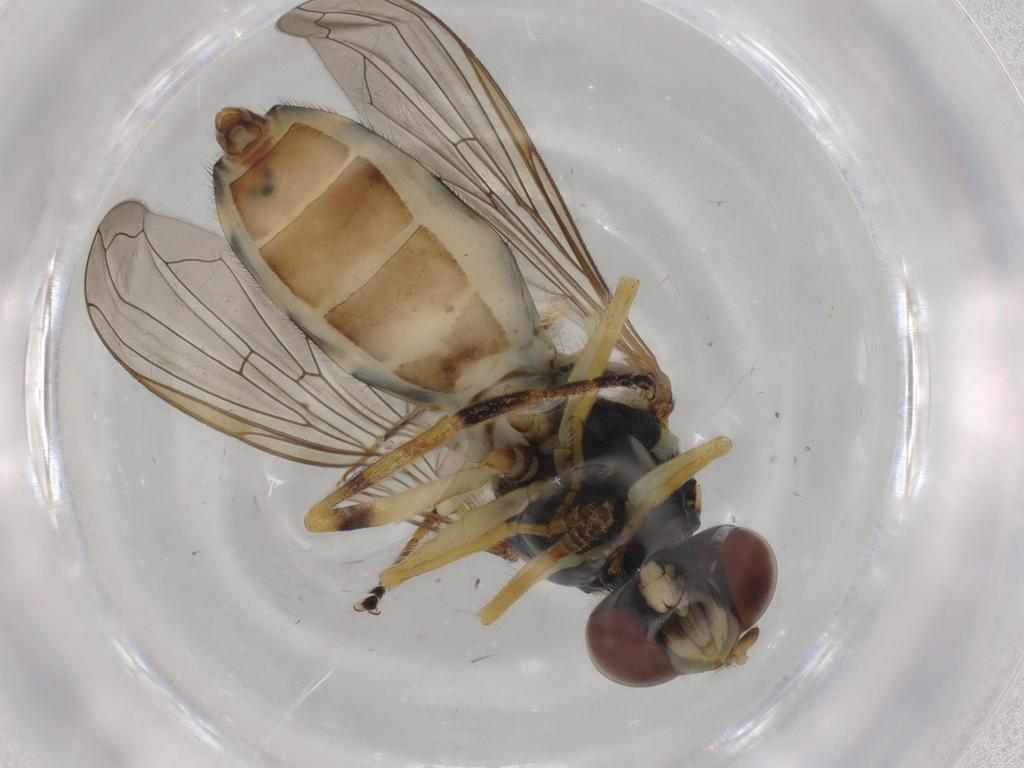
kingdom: Animalia
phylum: Arthropoda
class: Insecta
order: Diptera
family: Syrphidae
